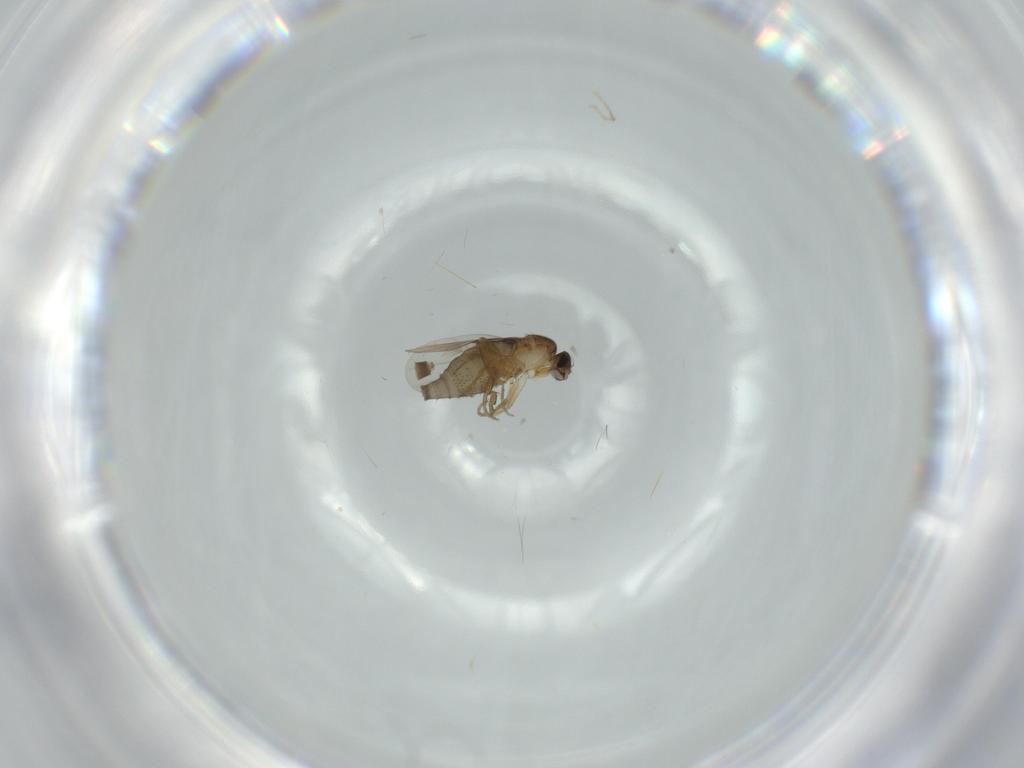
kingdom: Animalia
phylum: Arthropoda
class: Insecta
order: Diptera
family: Phoridae
